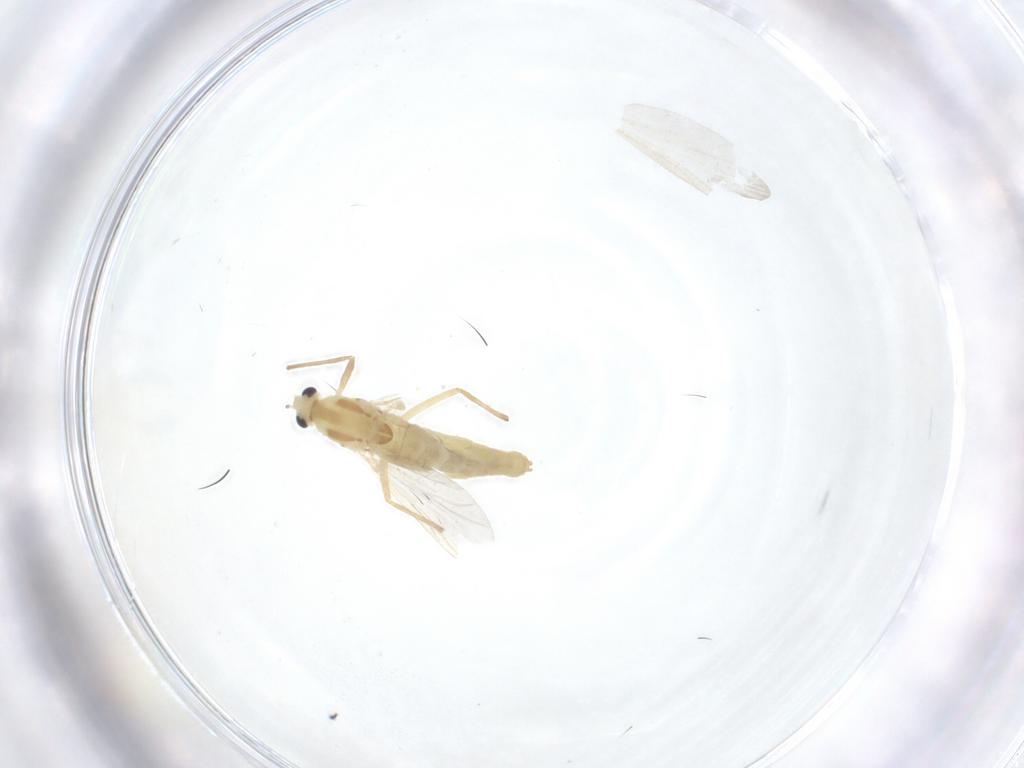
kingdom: Animalia
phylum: Arthropoda
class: Insecta
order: Diptera
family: Chironomidae
